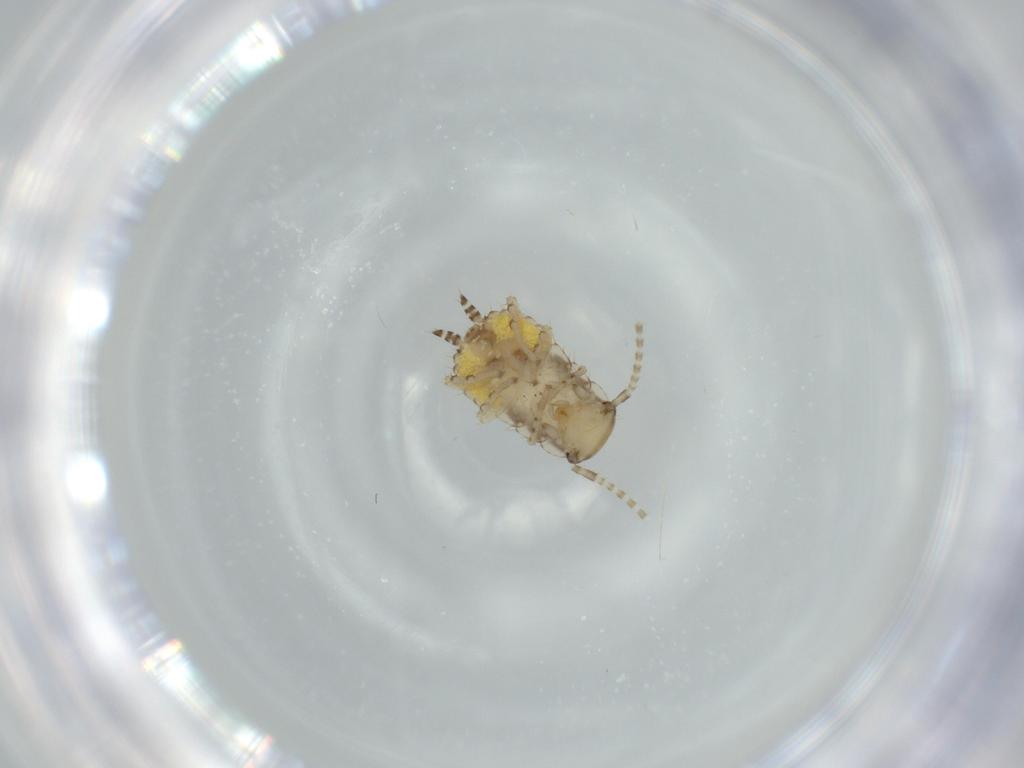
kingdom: Animalia
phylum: Arthropoda
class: Insecta
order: Blattodea
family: Ectobiidae
